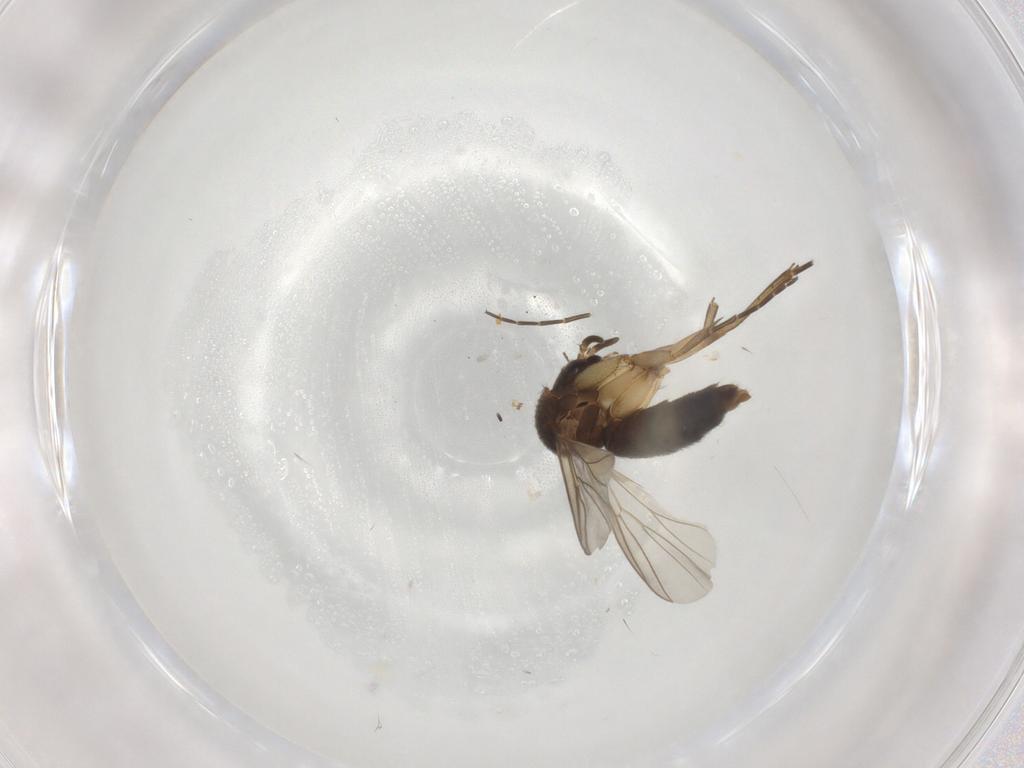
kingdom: Animalia
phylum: Arthropoda
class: Insecta
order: Diptera
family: Mycetophilidae
